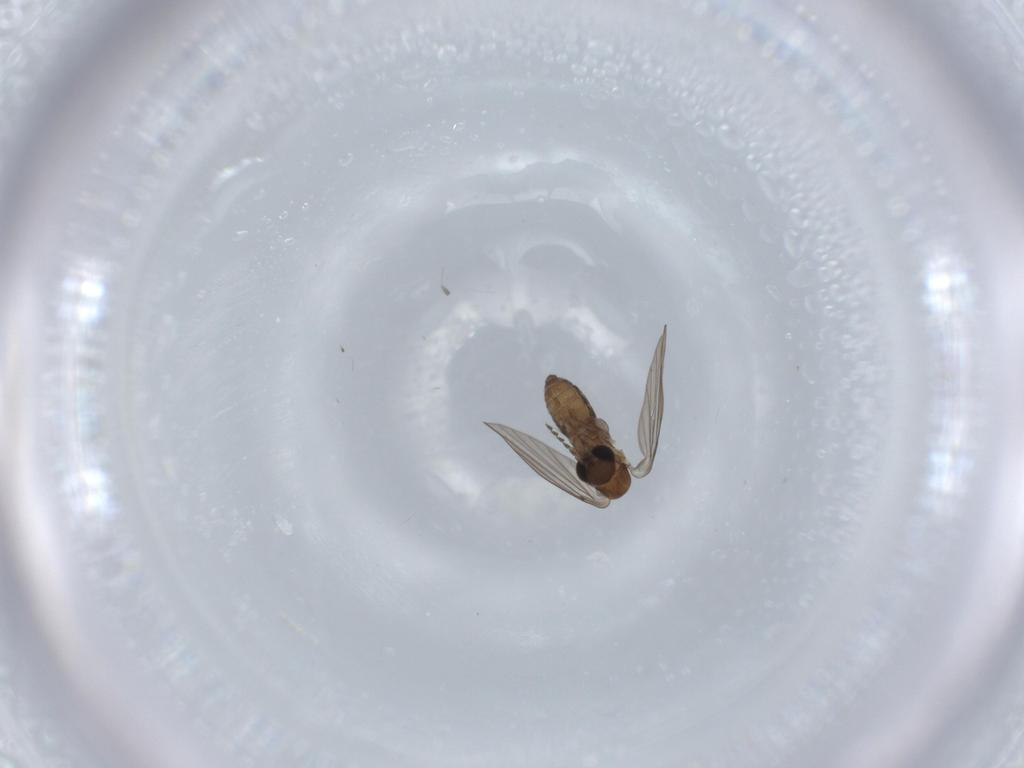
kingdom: Animalia
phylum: Arthropoda
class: Insecta
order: Diptera
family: Psychodidae
